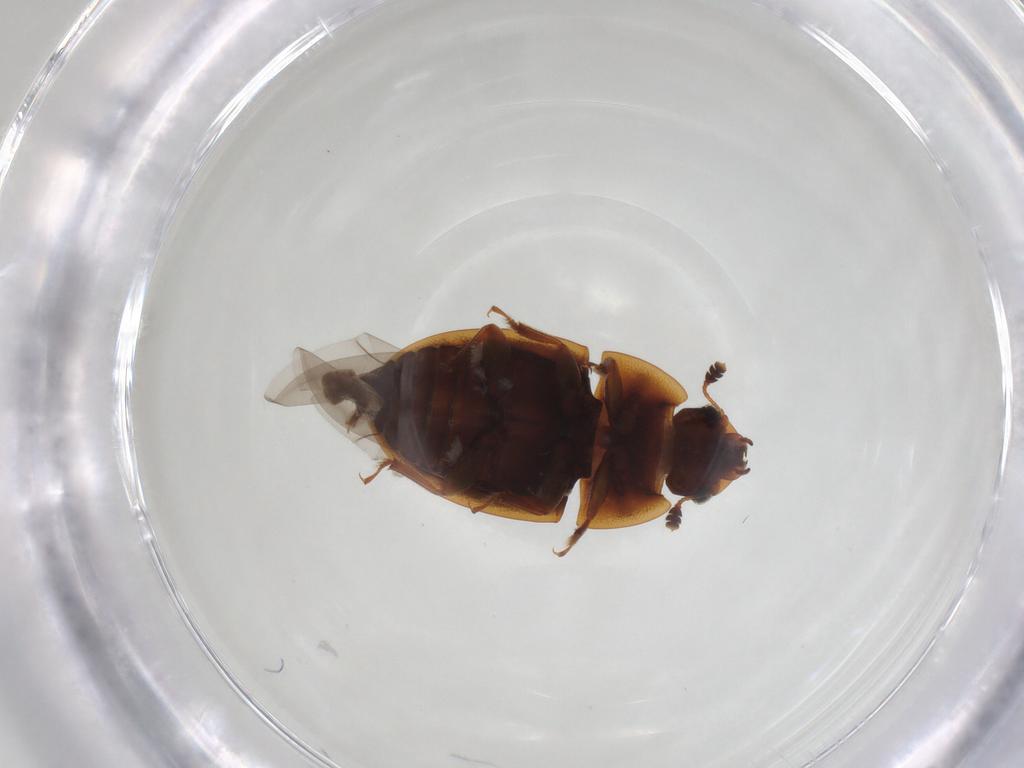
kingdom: Animalia
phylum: Arthropoda
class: Insecta
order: Coleoptera
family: Nitidulidae
